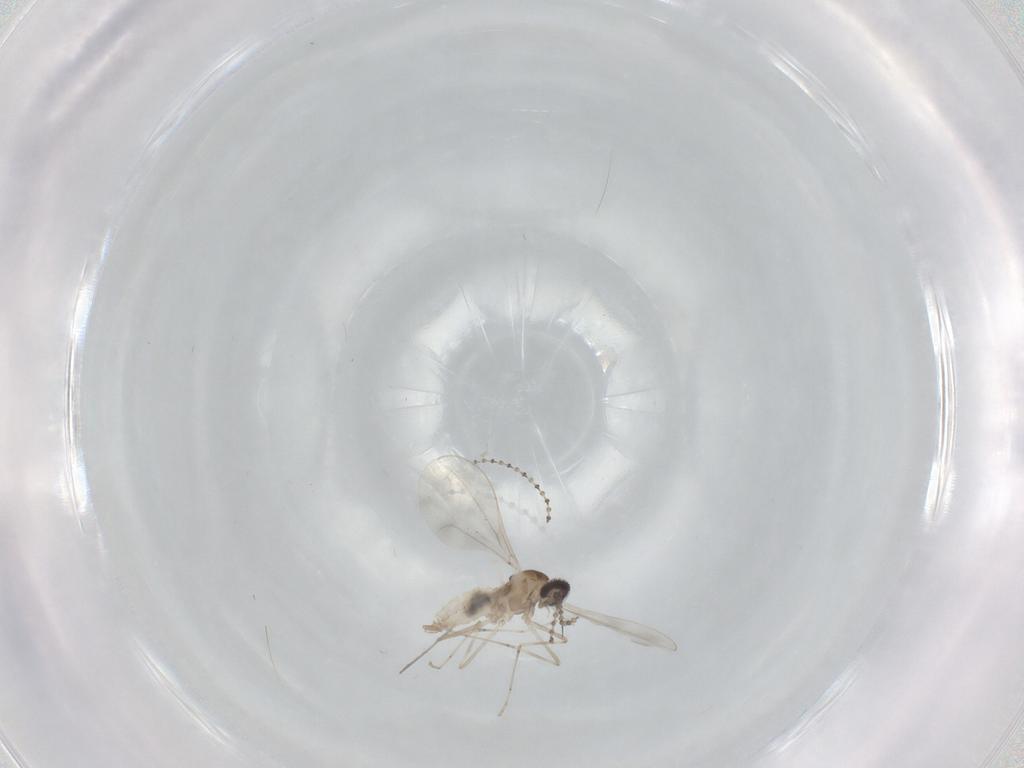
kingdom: Animalia
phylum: Arthropoda
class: Insecta
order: Diptera
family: Cecidomyiidae
